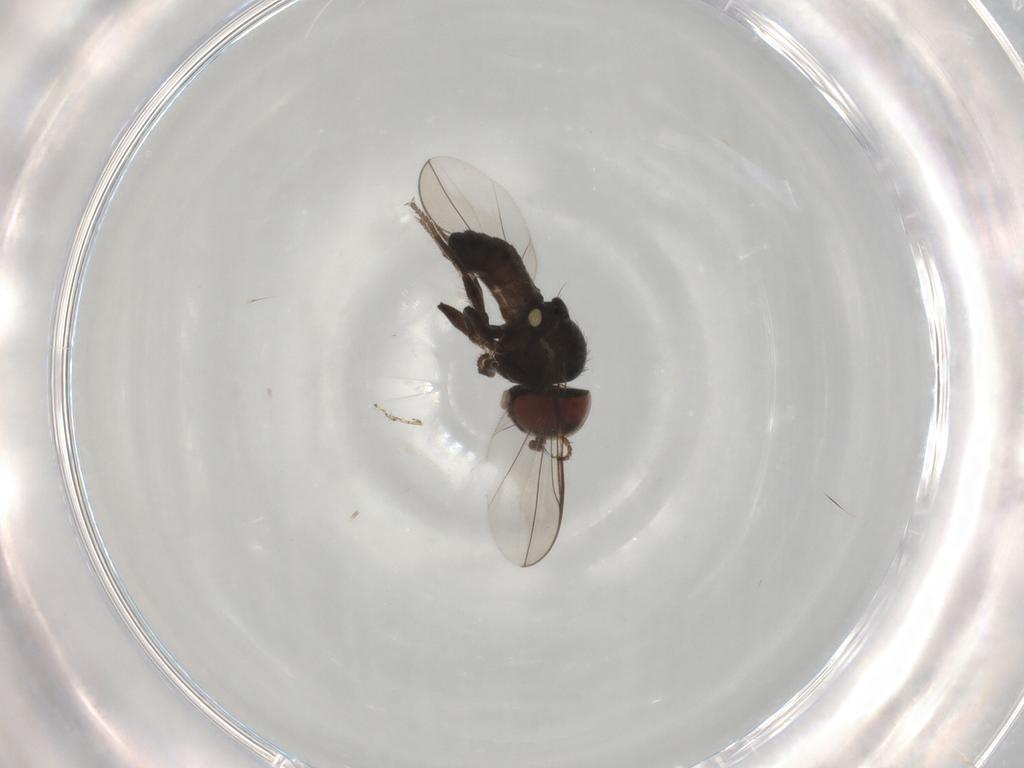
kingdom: Animalia
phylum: Arthropoda
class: Insecta
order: Diptera
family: Pipunculidae
